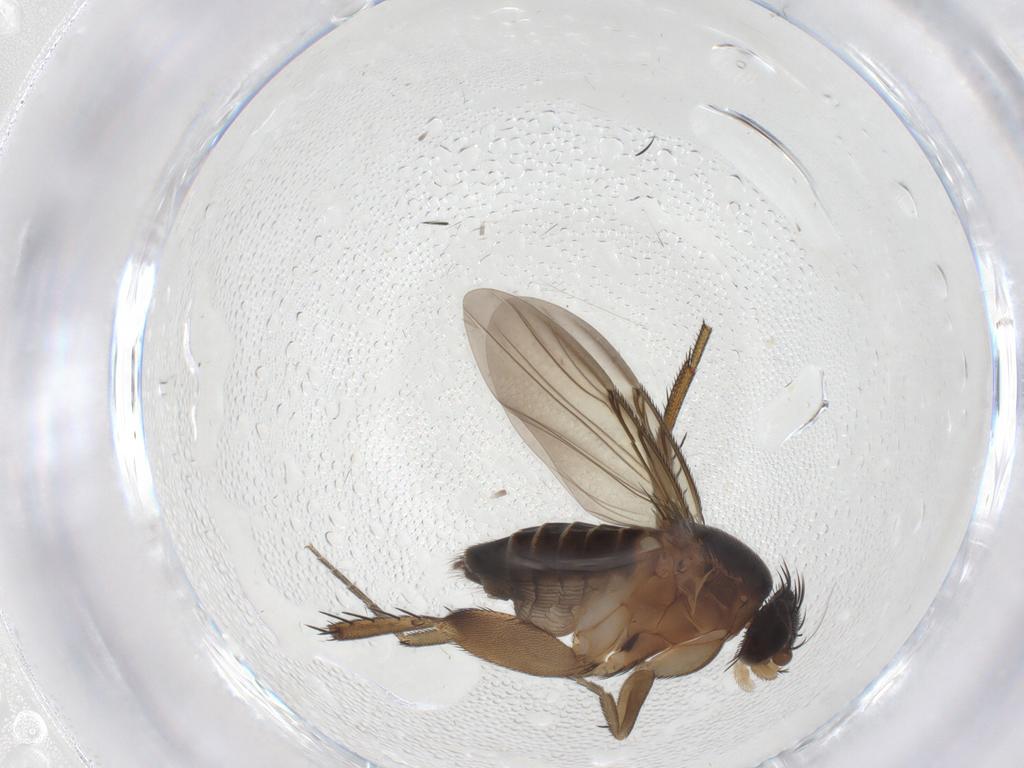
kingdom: Animalia
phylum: Arthropoda
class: Insecta
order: Diptera
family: Phoridae
